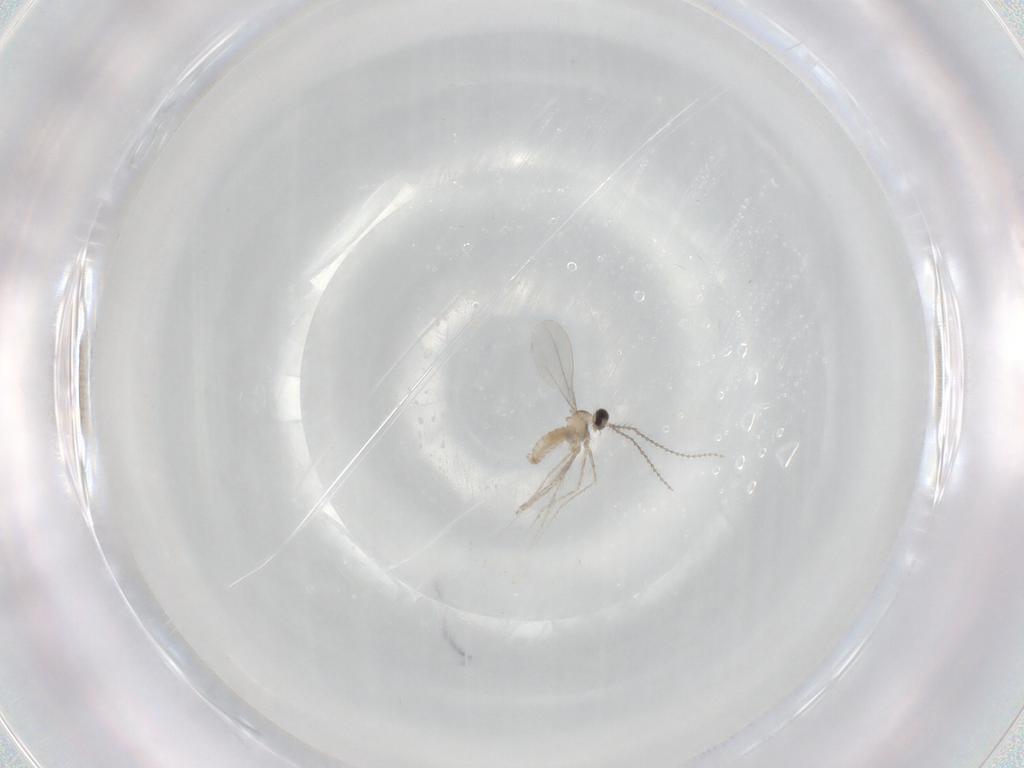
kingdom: Animalia
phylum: Arthropoda
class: Insecta
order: Diptera
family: Cecidomyiidae
